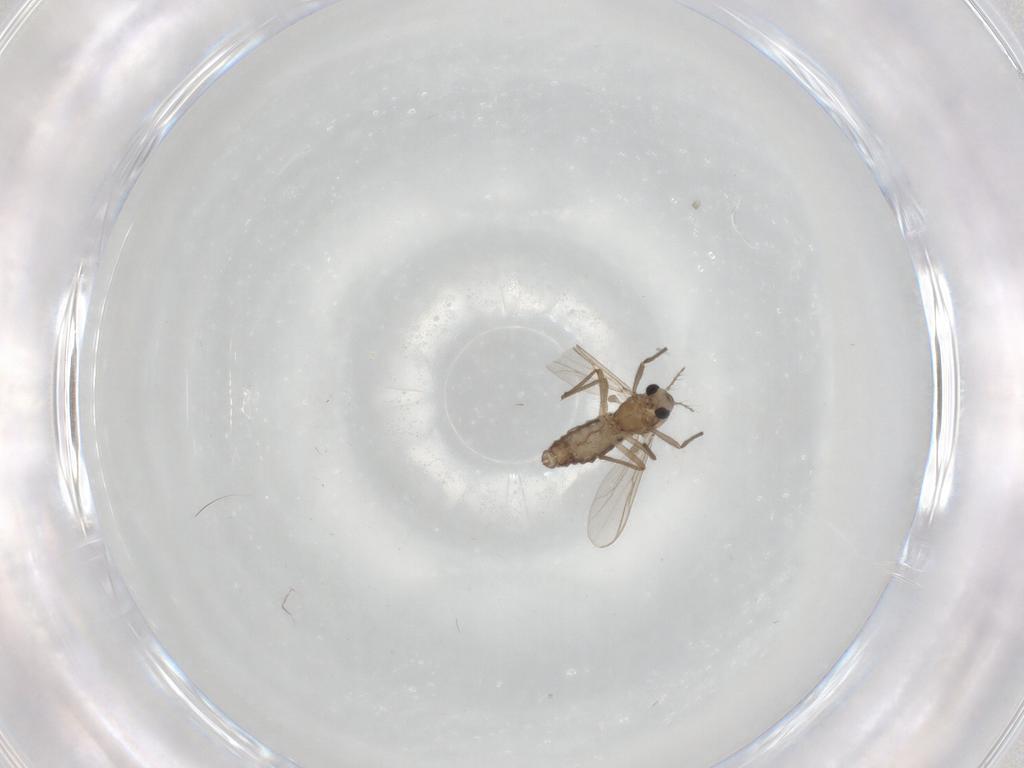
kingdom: Animalia
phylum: Arthropoda
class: Insecta
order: Diptera
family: Chironomidae
